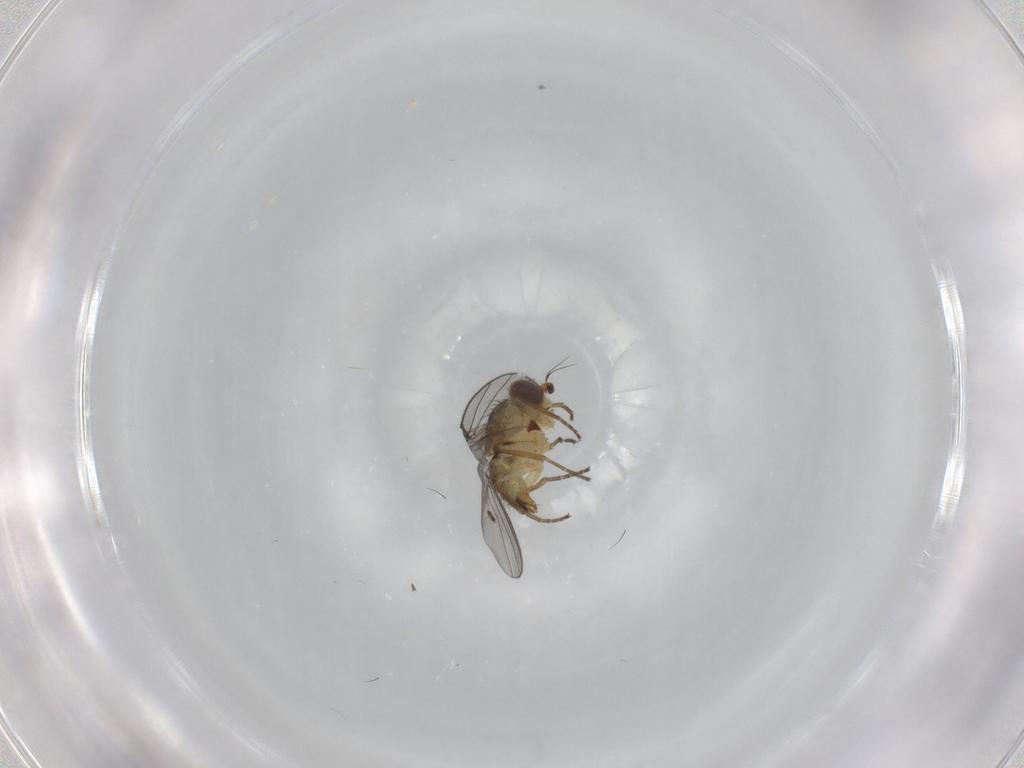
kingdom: Animalia
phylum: Arthropoda
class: Insecta
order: Diptera
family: Agromyzidae
